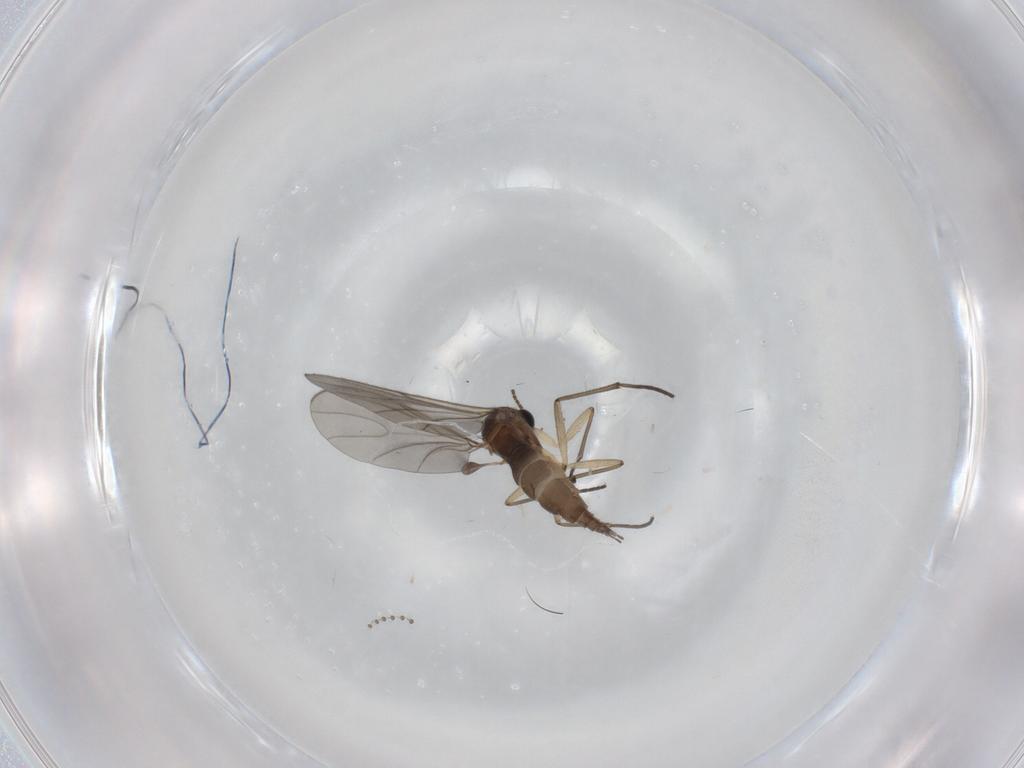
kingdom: Animalia
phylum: Arthropoda
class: Insecta
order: Diptera
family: Sciaridae
